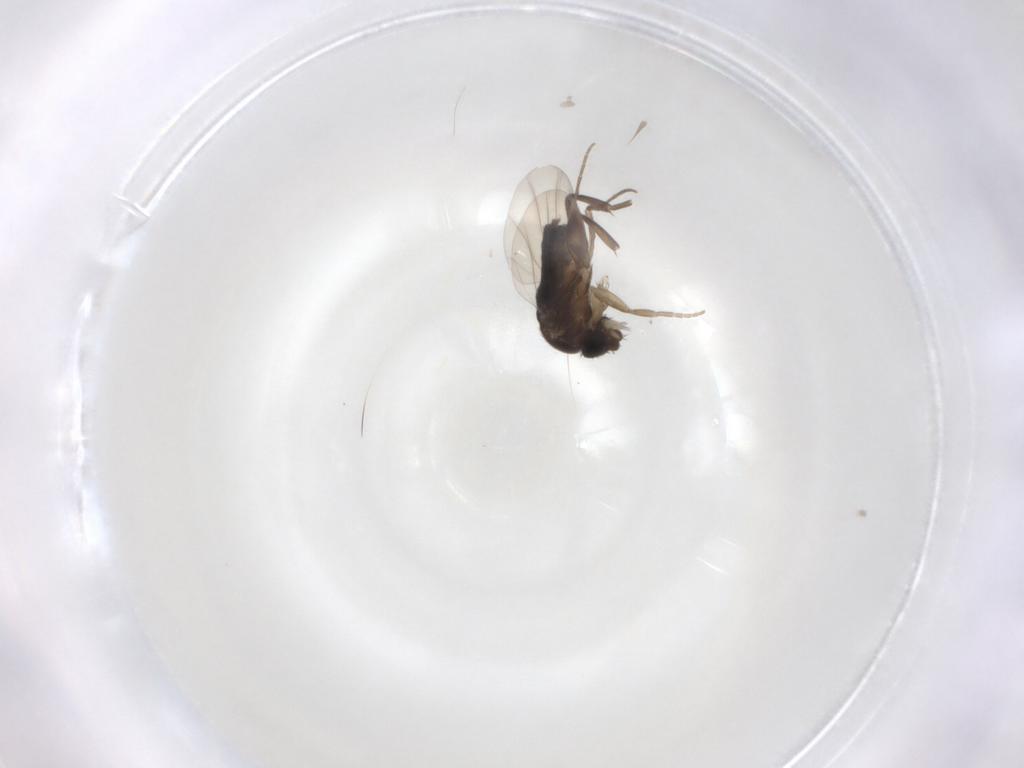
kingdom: Animalia
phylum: Arthropoda
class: Insecta
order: Diptera
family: Phoridae
